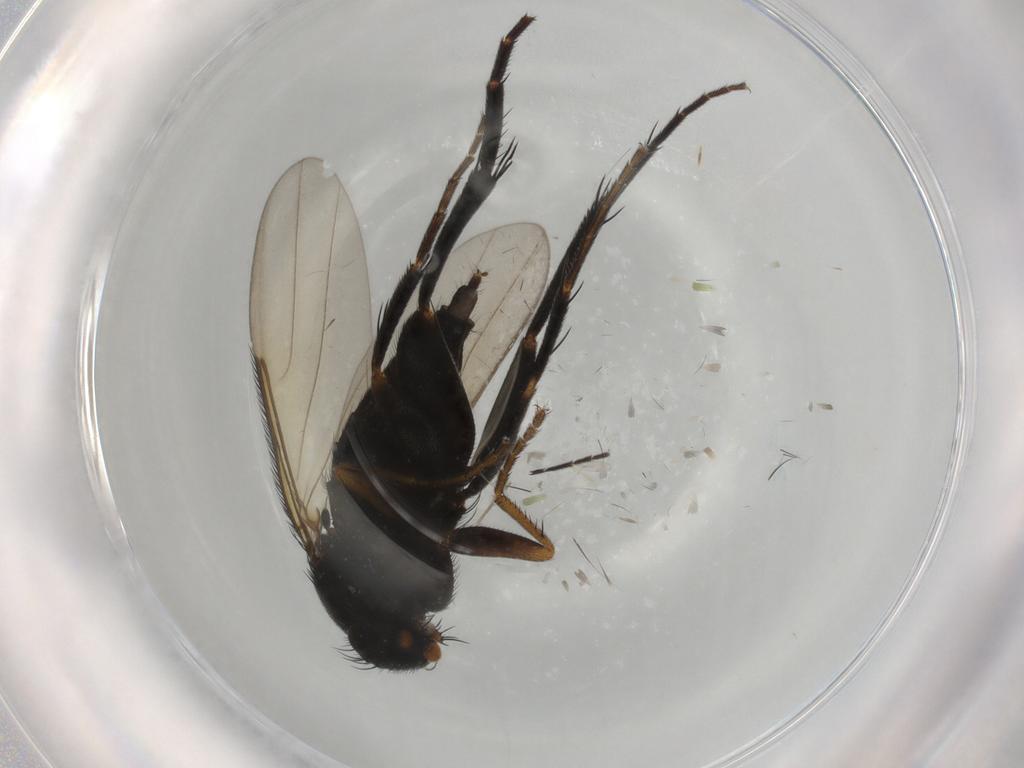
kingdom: Animalia
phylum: Arthropoda
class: Insecta
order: Diptera
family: Phoridae
